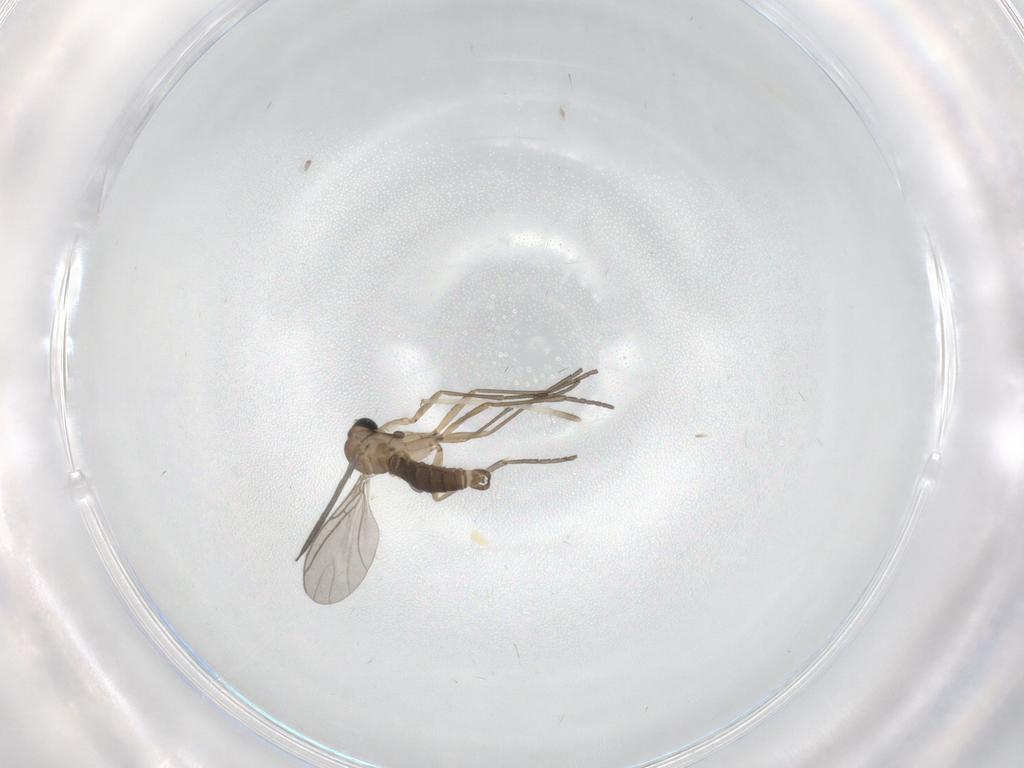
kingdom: Animalia
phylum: Arthropoda
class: Insecta
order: Diptera
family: Sciaridae
